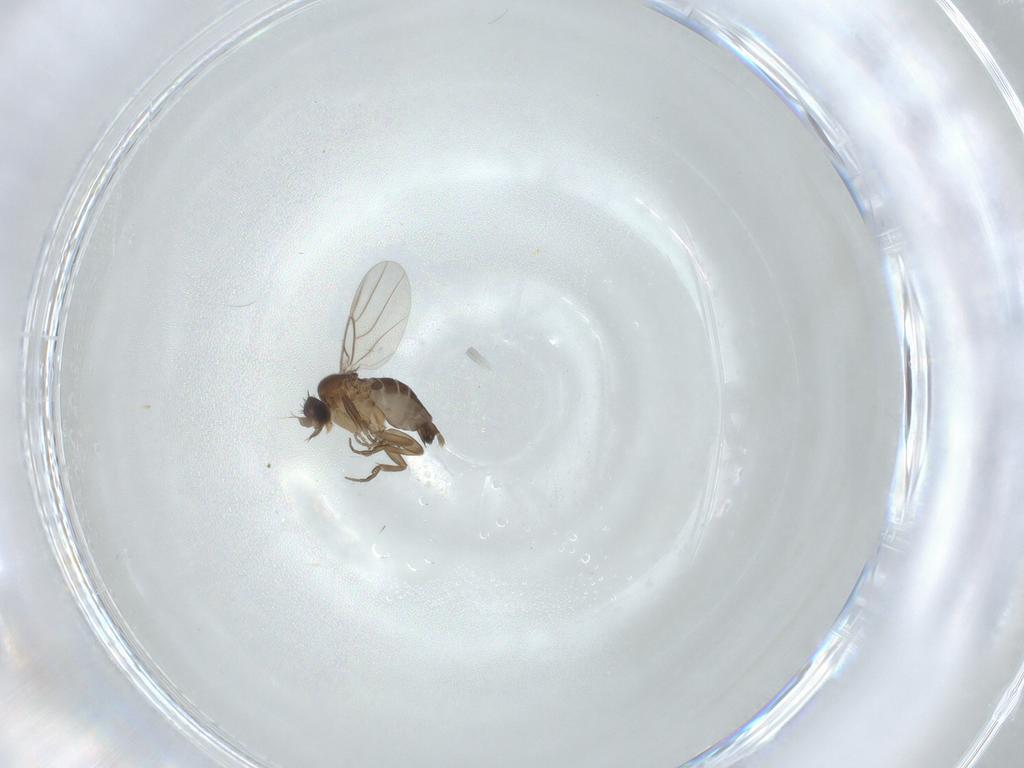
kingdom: Animalia
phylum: Arthropoda
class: Insecta
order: Diptera
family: Phoridae
